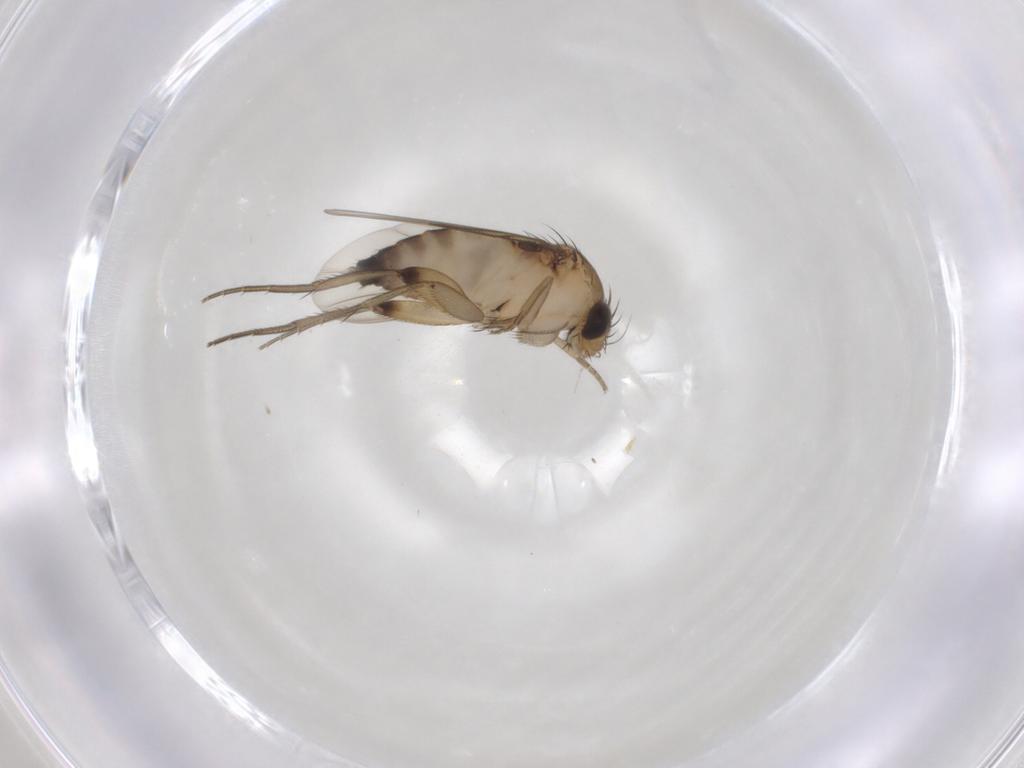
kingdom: Animalia
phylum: Arthropoda
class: Insecta
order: Diptera
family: Phoridae
